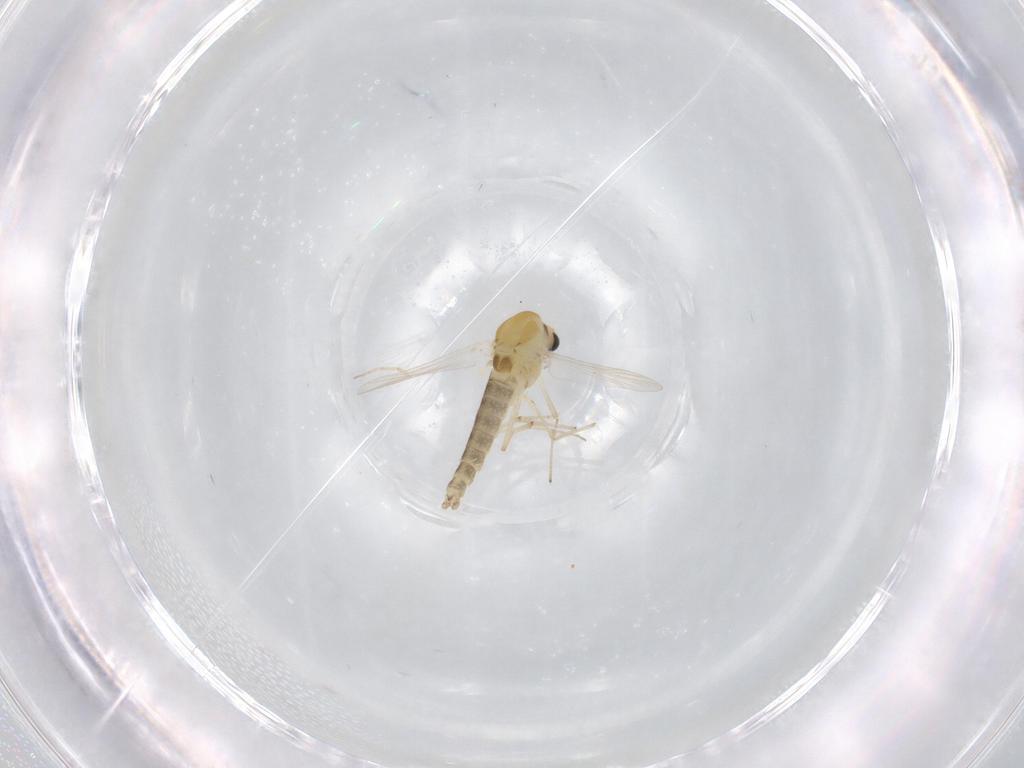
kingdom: Animalia
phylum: Arthropoda
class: Insecta
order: Diptera
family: Chironomidae
